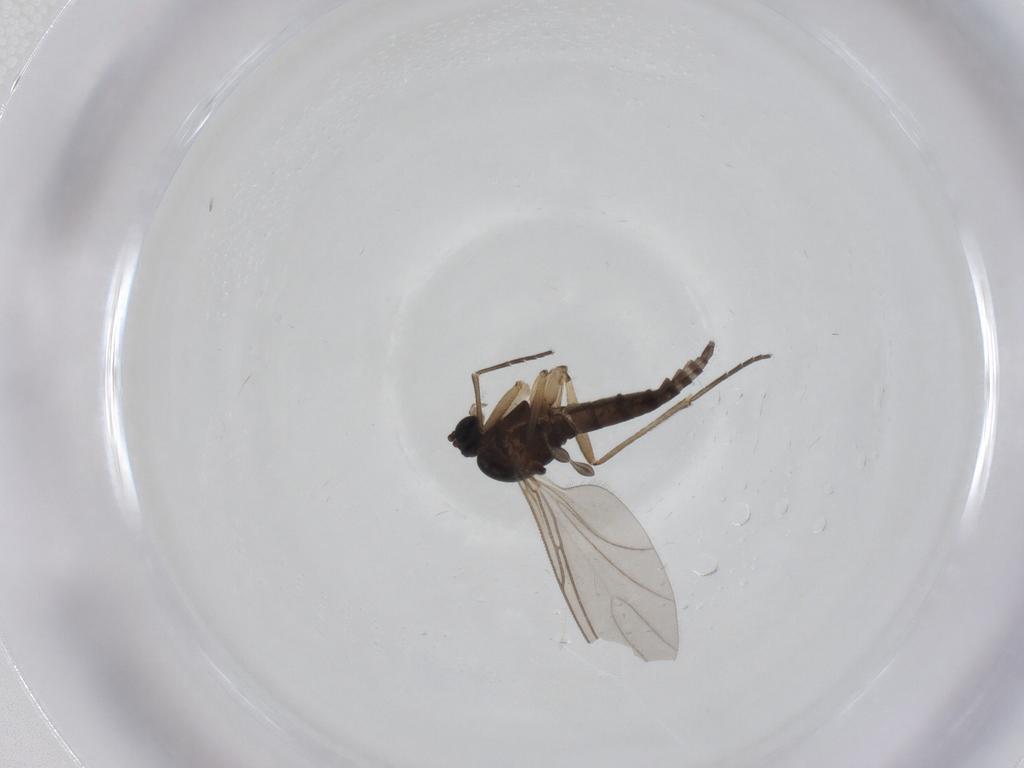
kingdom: Animalia
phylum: Arthropoda
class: Insecta
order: Diptera
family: Sciaridae
